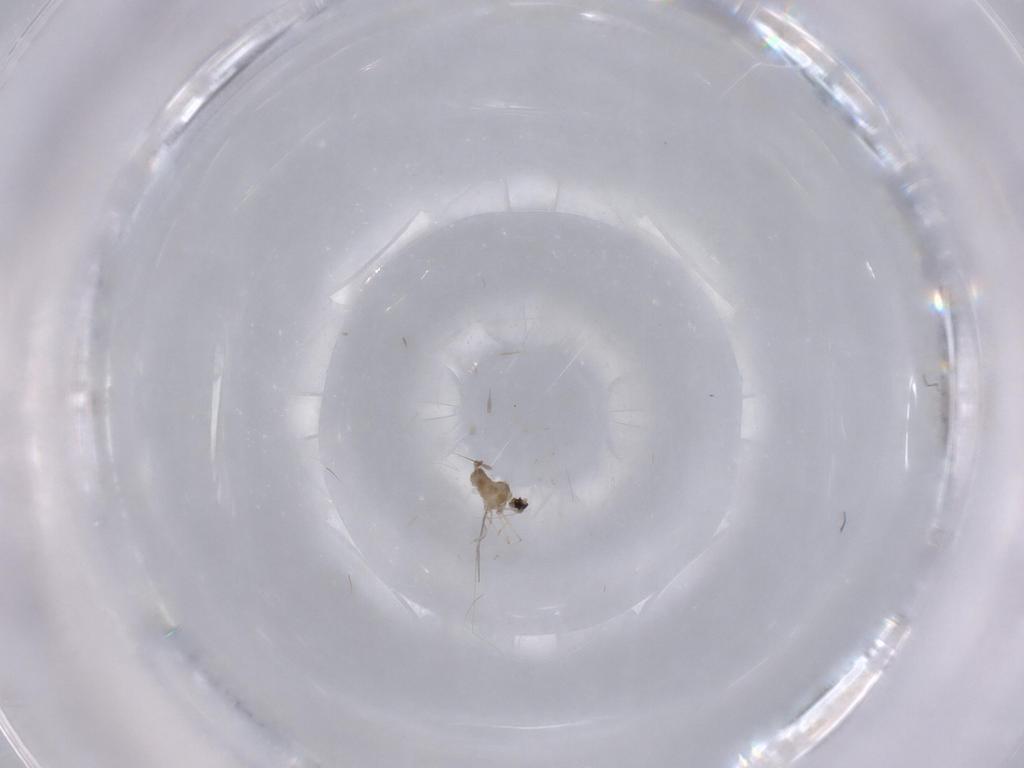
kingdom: Animalia
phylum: Arthropoda
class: Insecta
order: Diptera
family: Cecidomyiidae
